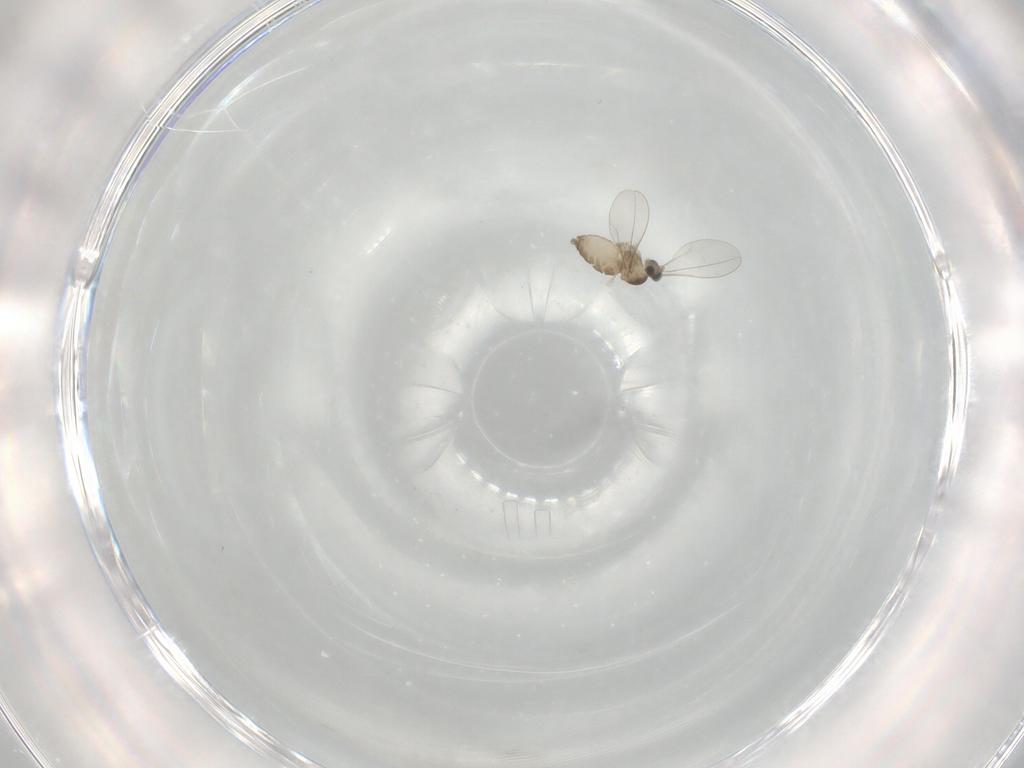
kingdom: Animalia
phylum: Arthropoda
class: Insecta
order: Diptera
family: Cecidomyiidae
